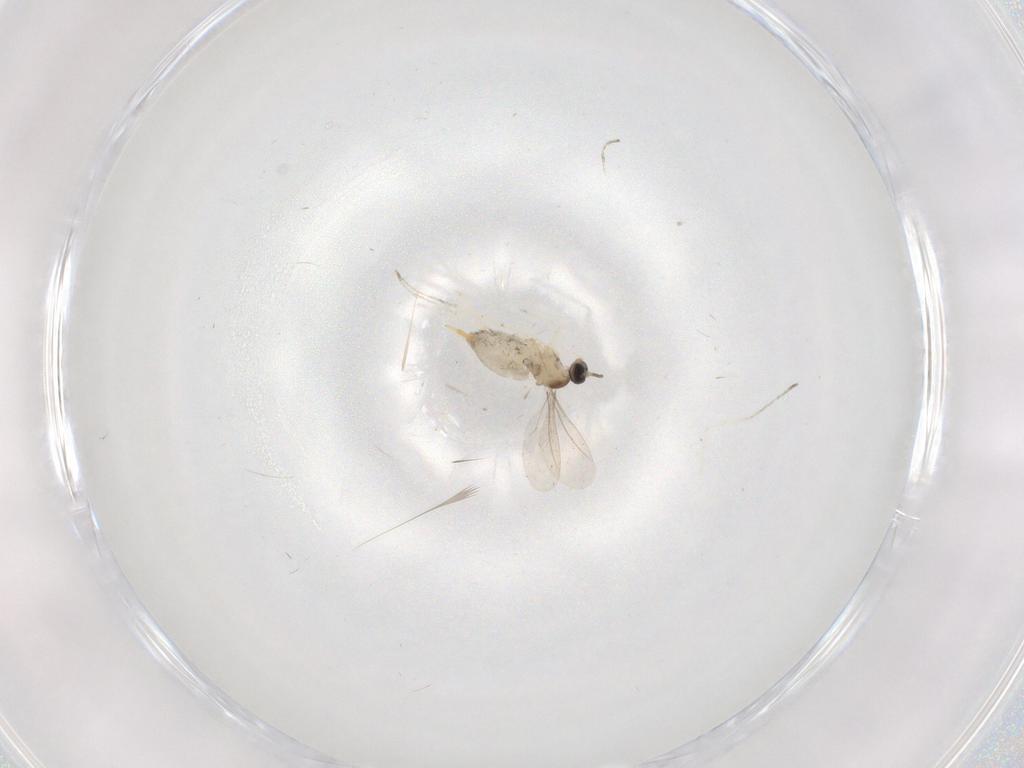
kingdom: Animalia
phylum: Arthropoda
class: Insecta
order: Diptera
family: Cecidomyiidae
